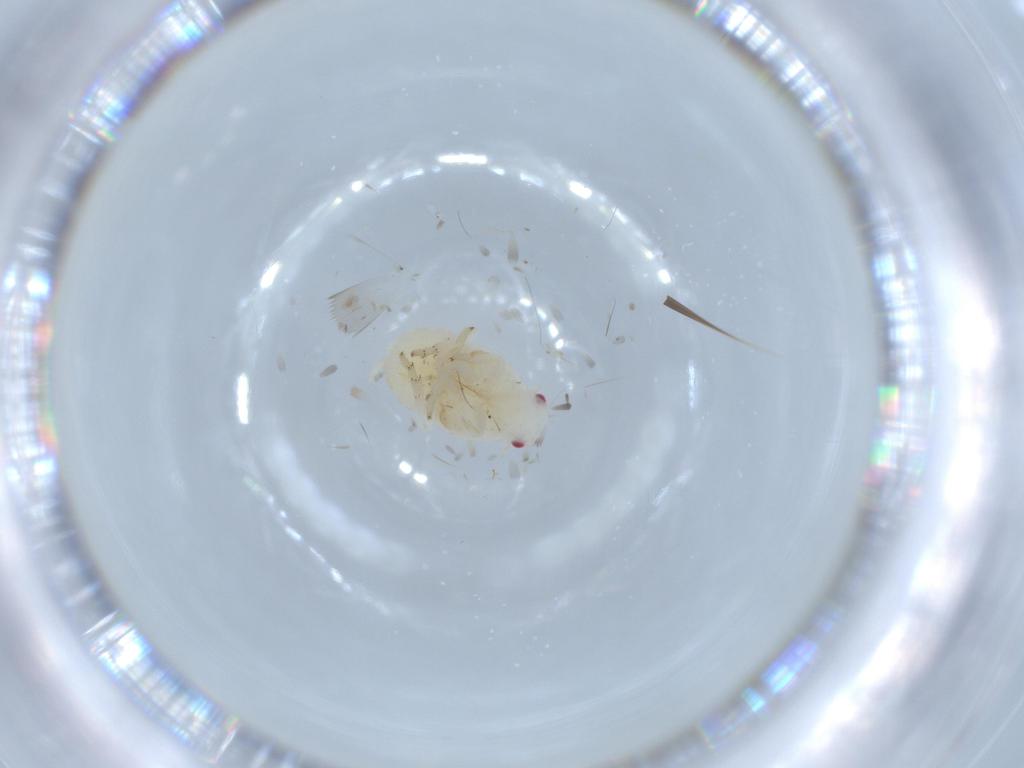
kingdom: Animalia
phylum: Arthropoda
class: Insecta
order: Hemiptera
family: Flatidae
